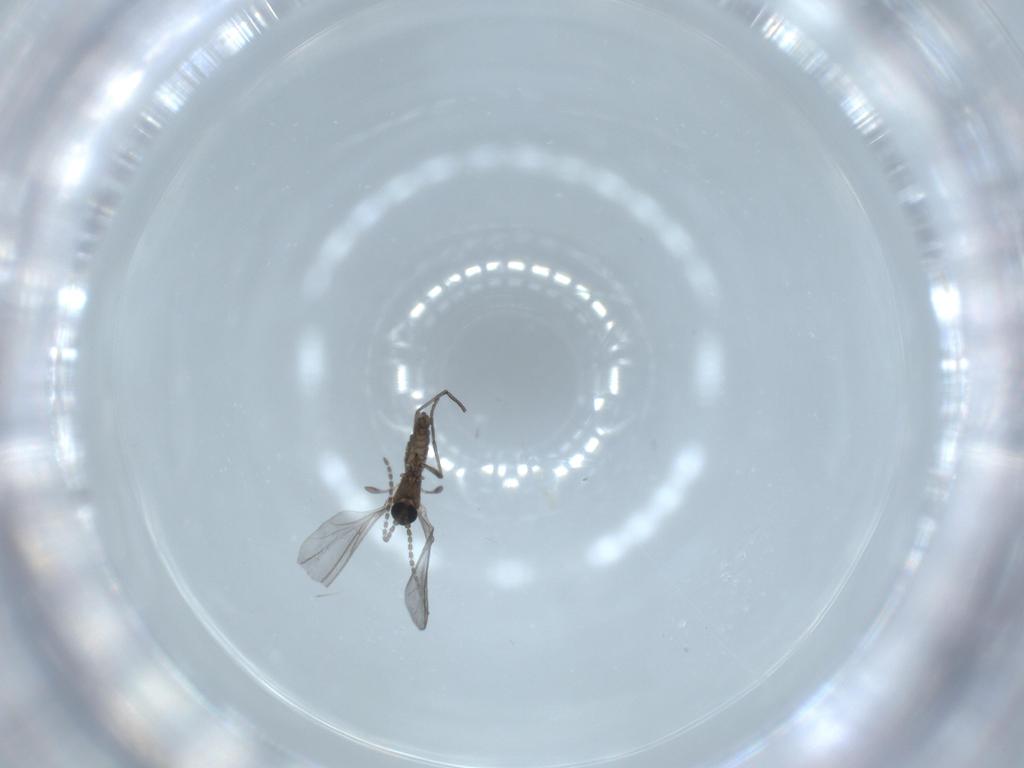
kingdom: Animalia
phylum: Arthropoda
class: Insecta
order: Diptera
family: Sciaridae
